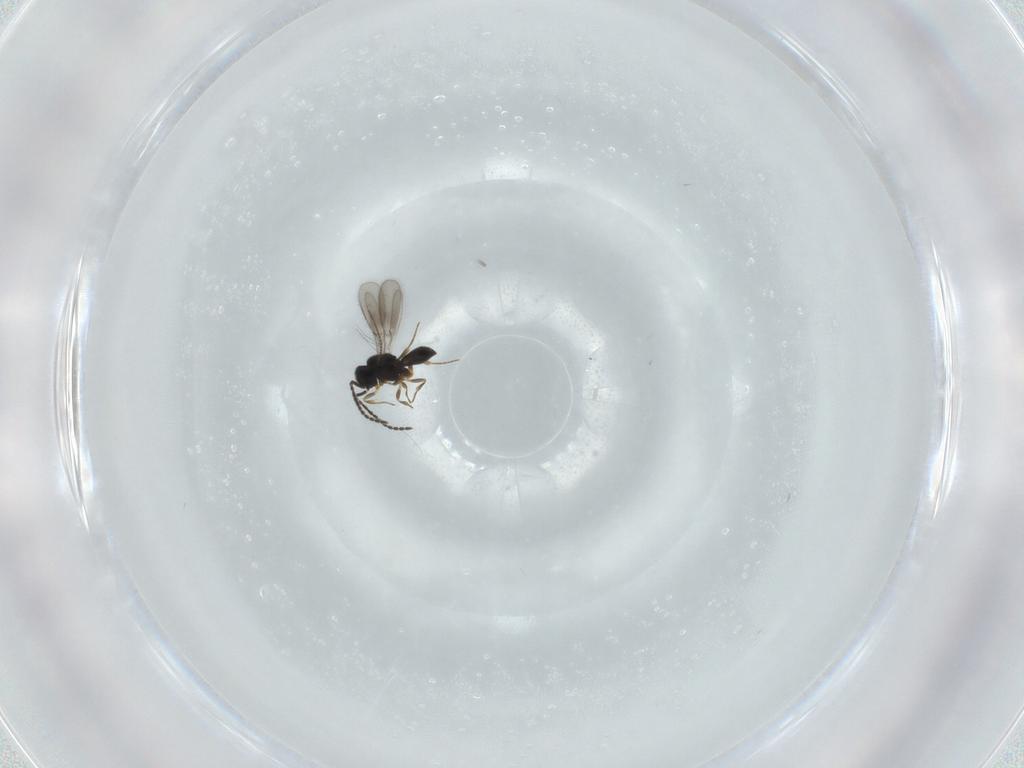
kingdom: Animalia
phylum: Arthropoda
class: Insecta
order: Hymenoptera
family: Scelionidae
